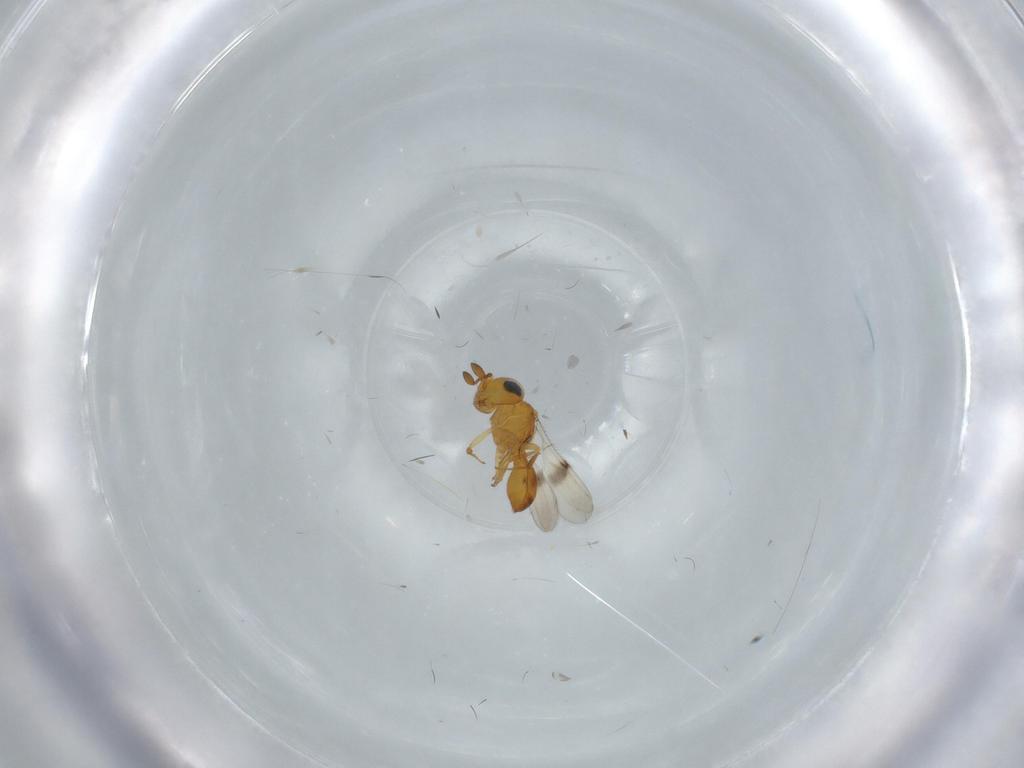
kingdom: Animalia
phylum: Arthropoda
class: Insecta
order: Hymenoptera
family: Scelionidae
